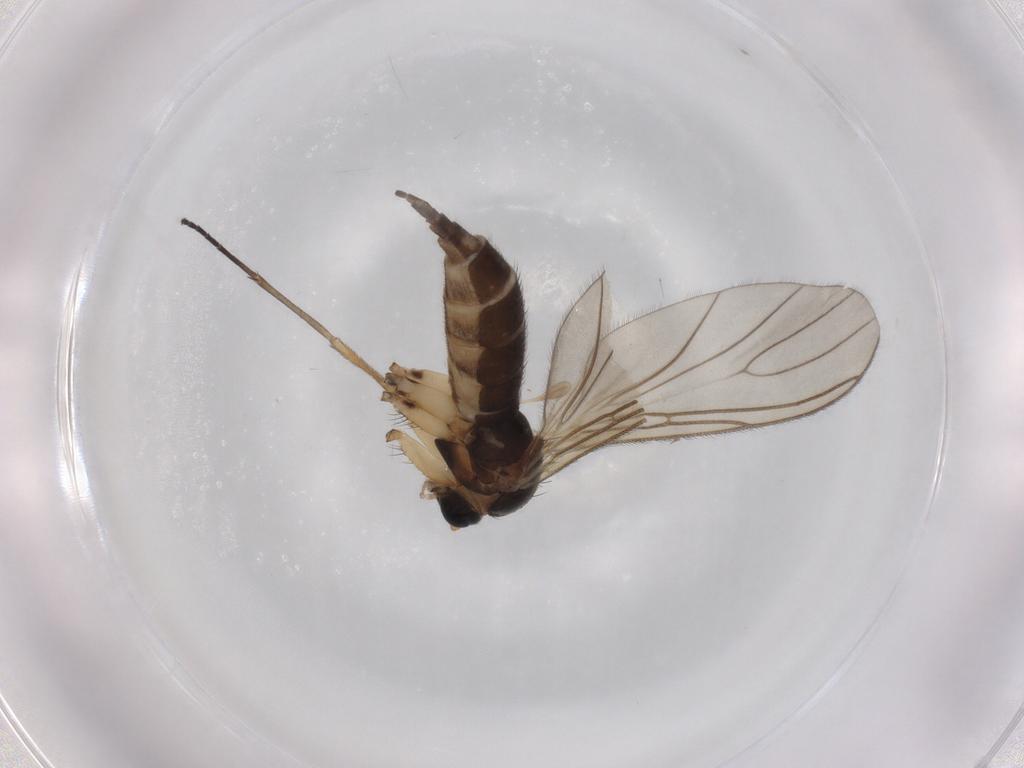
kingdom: Animalia
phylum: Arthropoda
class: Insecta
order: Diptera
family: Sciaridae
